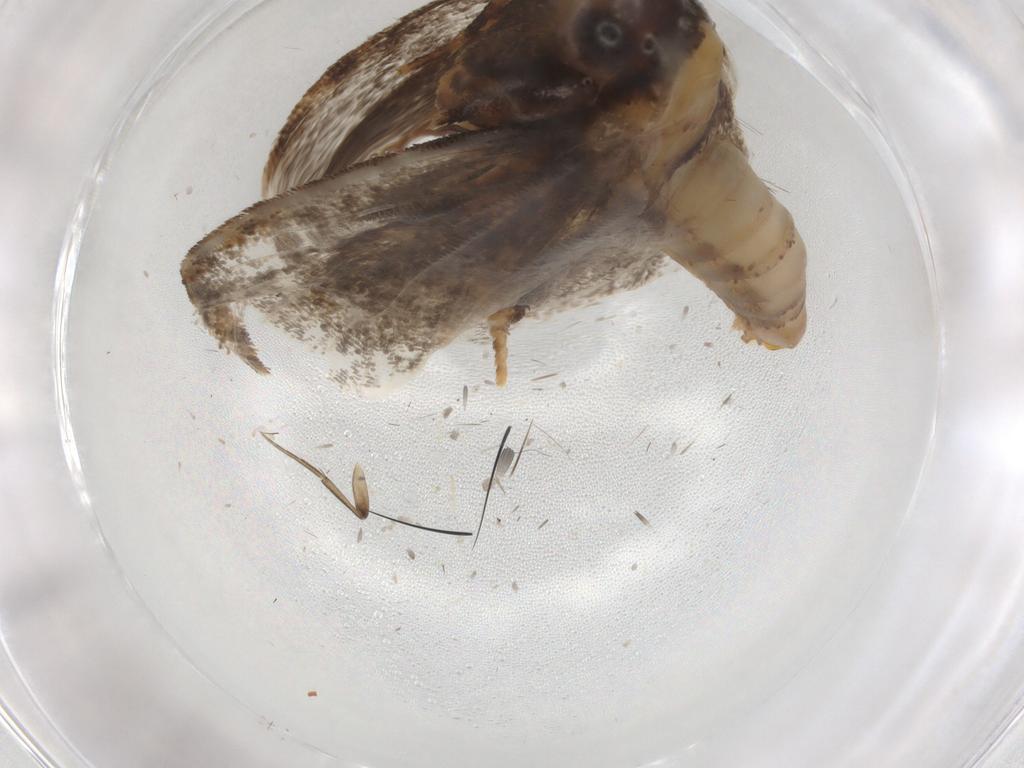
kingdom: Animalia
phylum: Arthropoda
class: Insecta
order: Lepidoptera
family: Tineidae
